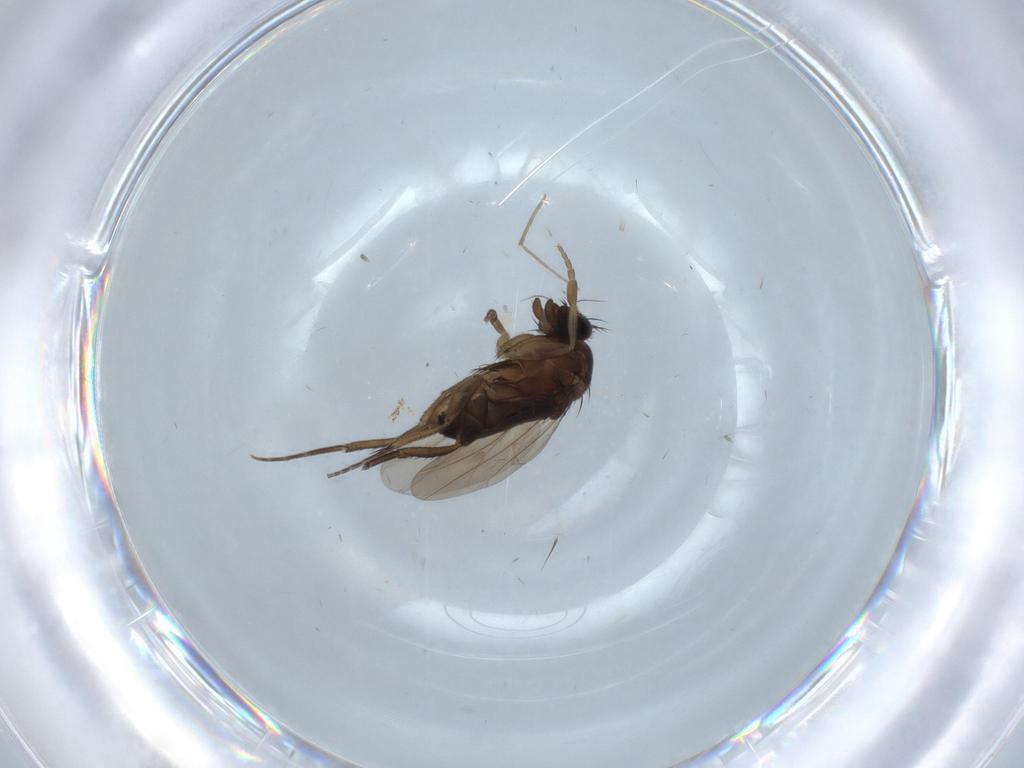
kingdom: Animalia
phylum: Arthropoda
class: Insecta
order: Diptera
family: Phoridae
